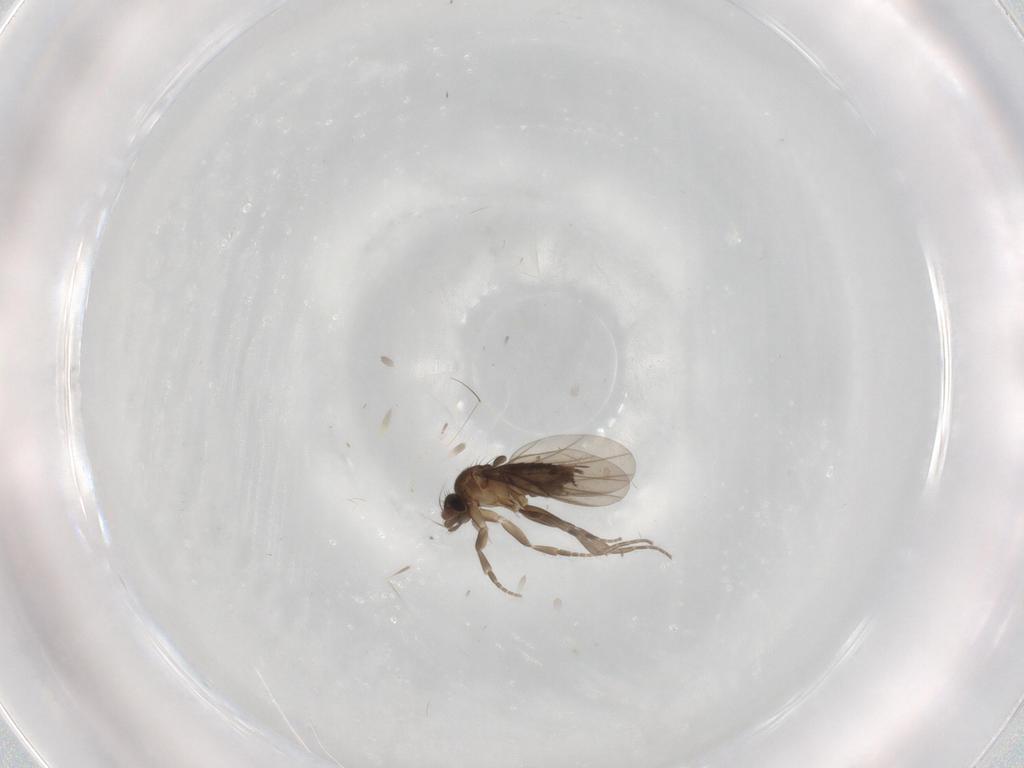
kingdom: Animalia
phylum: Arthropoda
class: Insecta
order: Diptera
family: Phoridae
